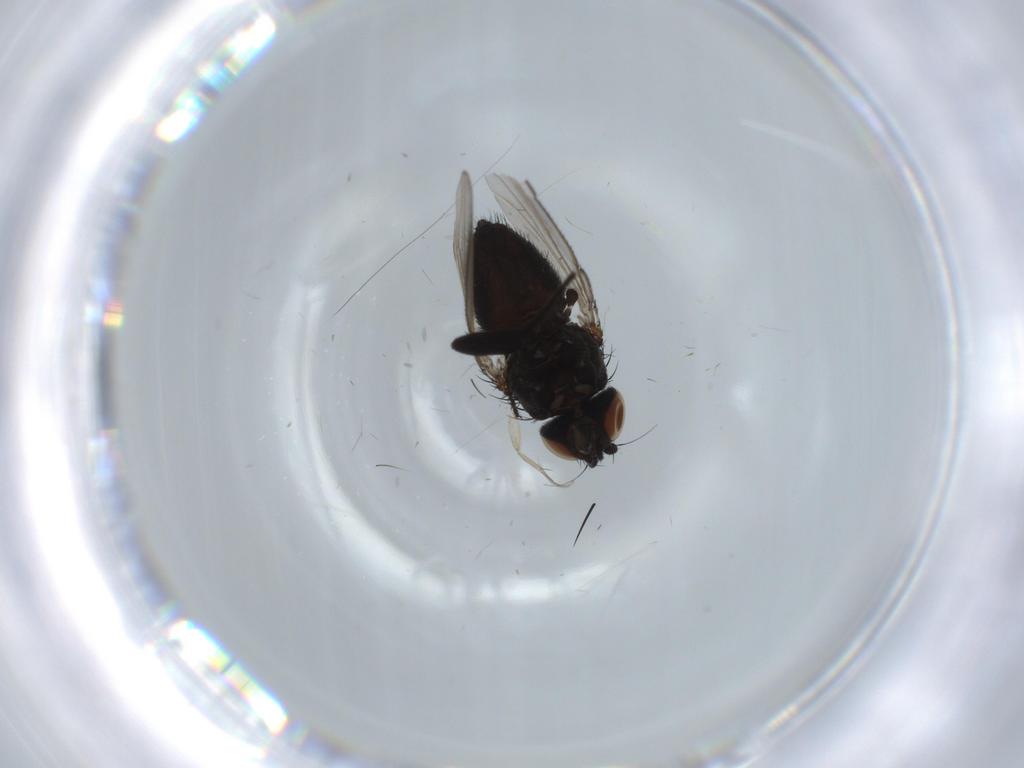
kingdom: Animalia
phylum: Arthropoda
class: Insecta
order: Diptera
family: Milichiidae
